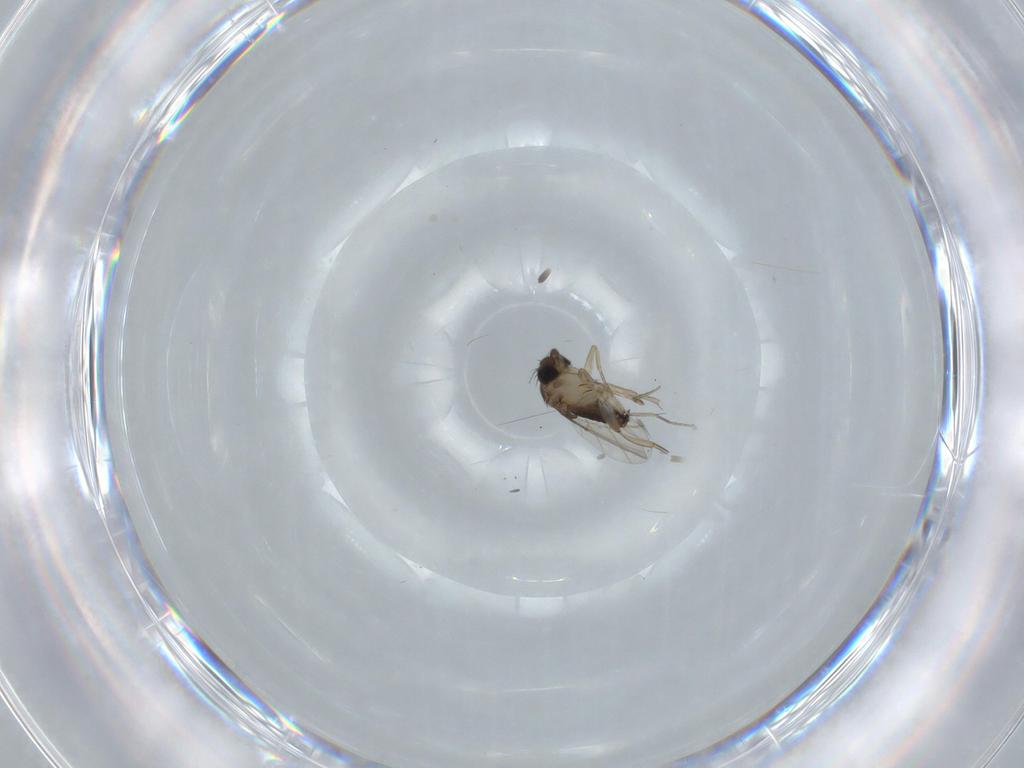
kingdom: Animalia
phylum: Arthropoda
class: Insecta
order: Diptera
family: Phoridae
